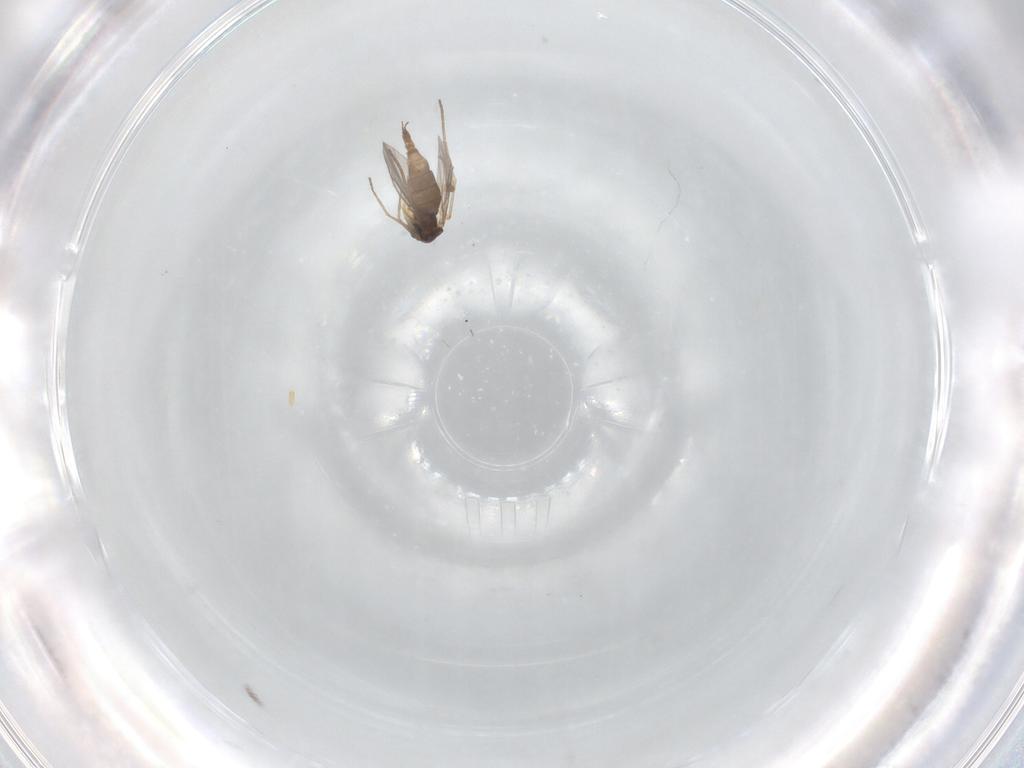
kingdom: Animalia
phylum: Arthropoda
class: Insecta
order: Diptera
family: Sciaridae
